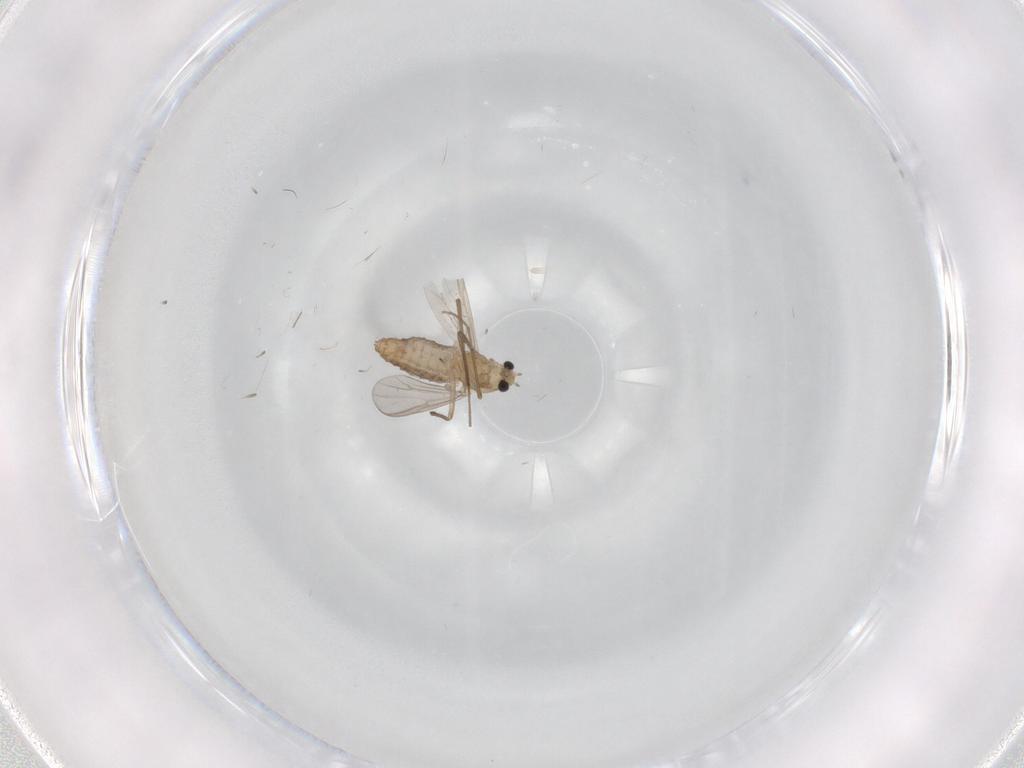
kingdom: Animalia
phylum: Arthropoda
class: Insecta
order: Diptera
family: Chironomidae
